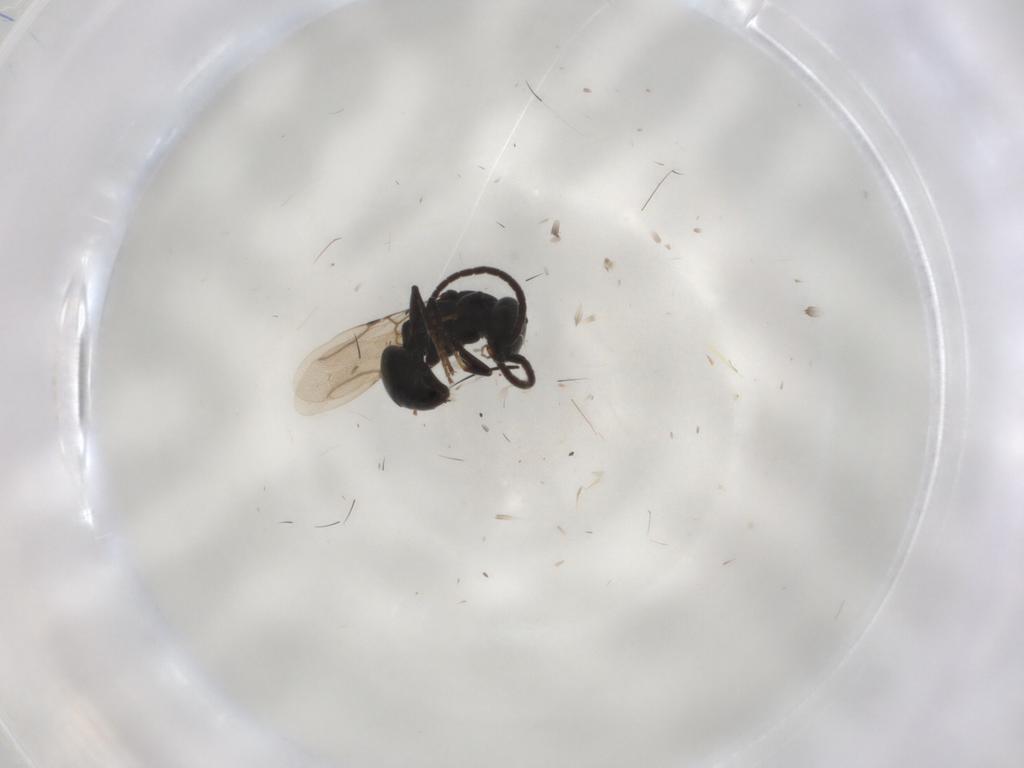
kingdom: Animalia
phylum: Arthropoda
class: Insecta
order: Hymenoptera
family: Bethylidae
